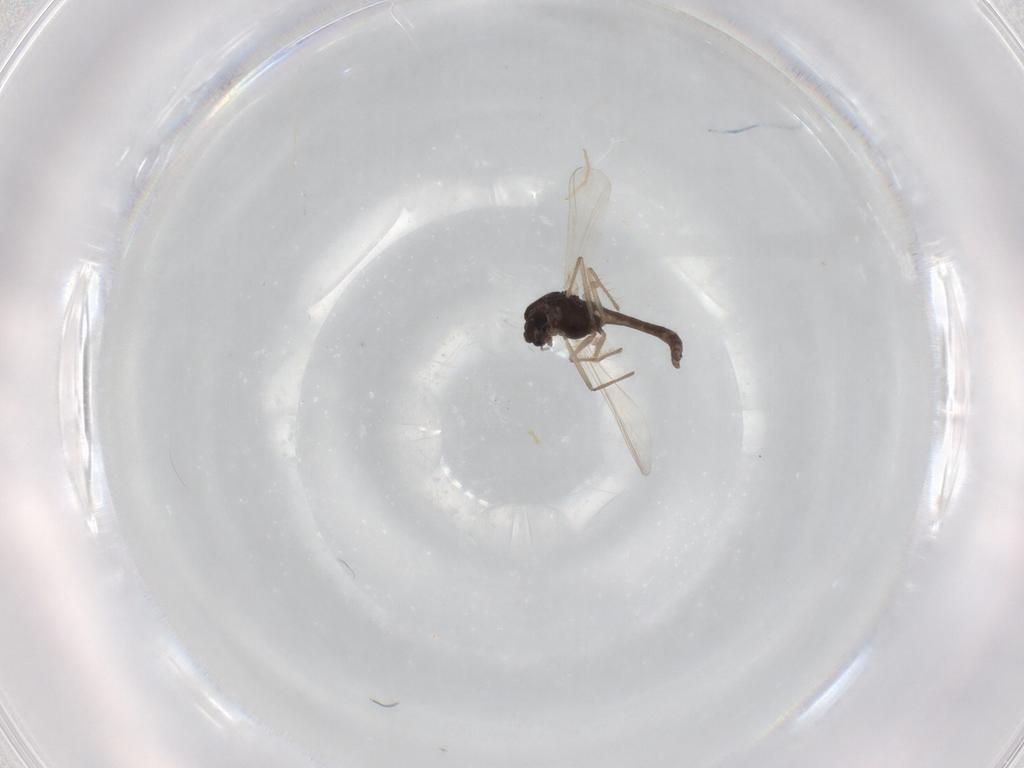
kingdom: Animalia
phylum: Arthropoda
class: Insecta
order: Diptera
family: Chironomidae
